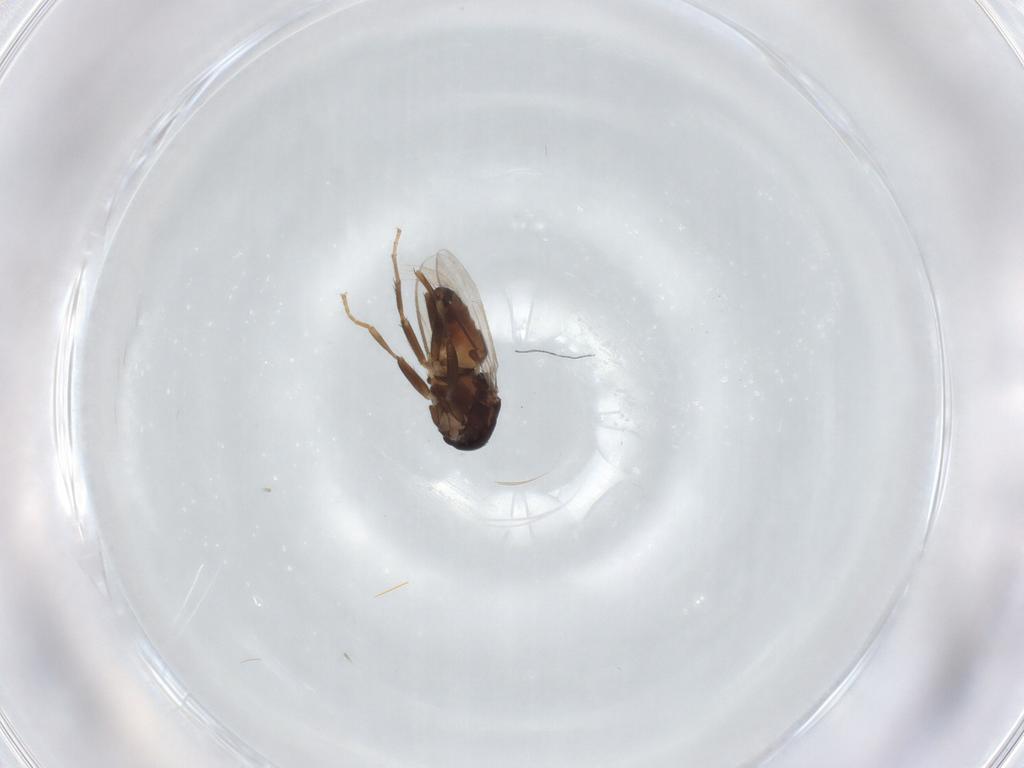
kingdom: Animalia
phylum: Arthropoda
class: Insecta
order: Diptera
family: Sphaeroceridae
